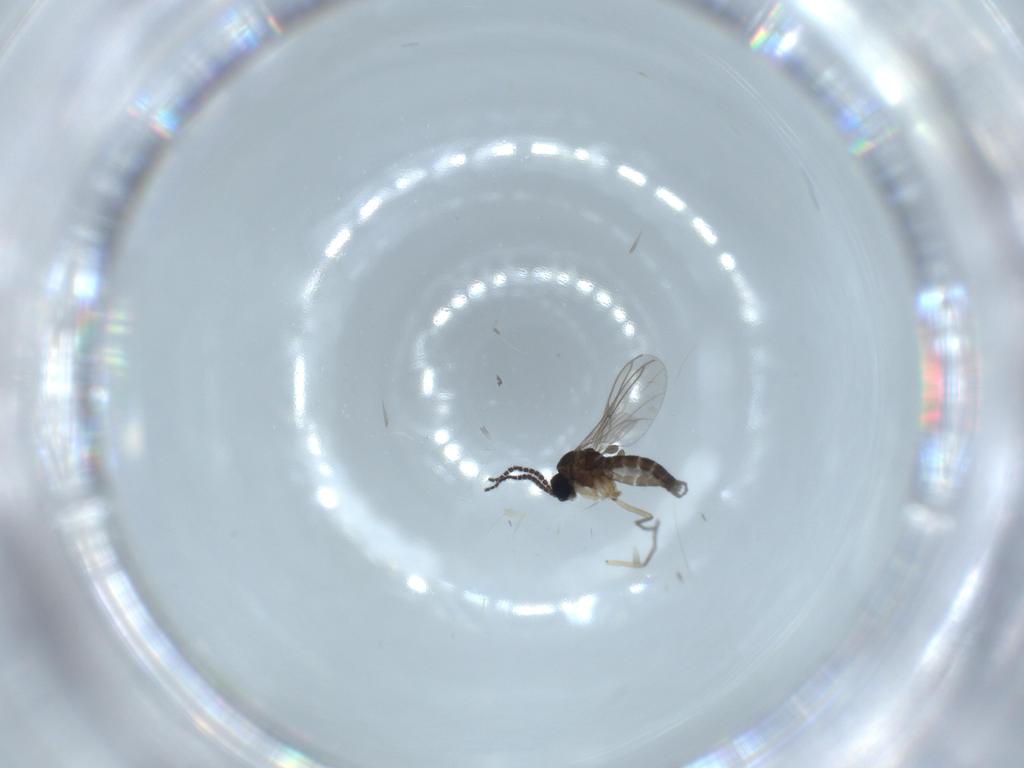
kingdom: Animalia
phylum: Arthropoda
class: Insecta
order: Diptera
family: Sciaridae
